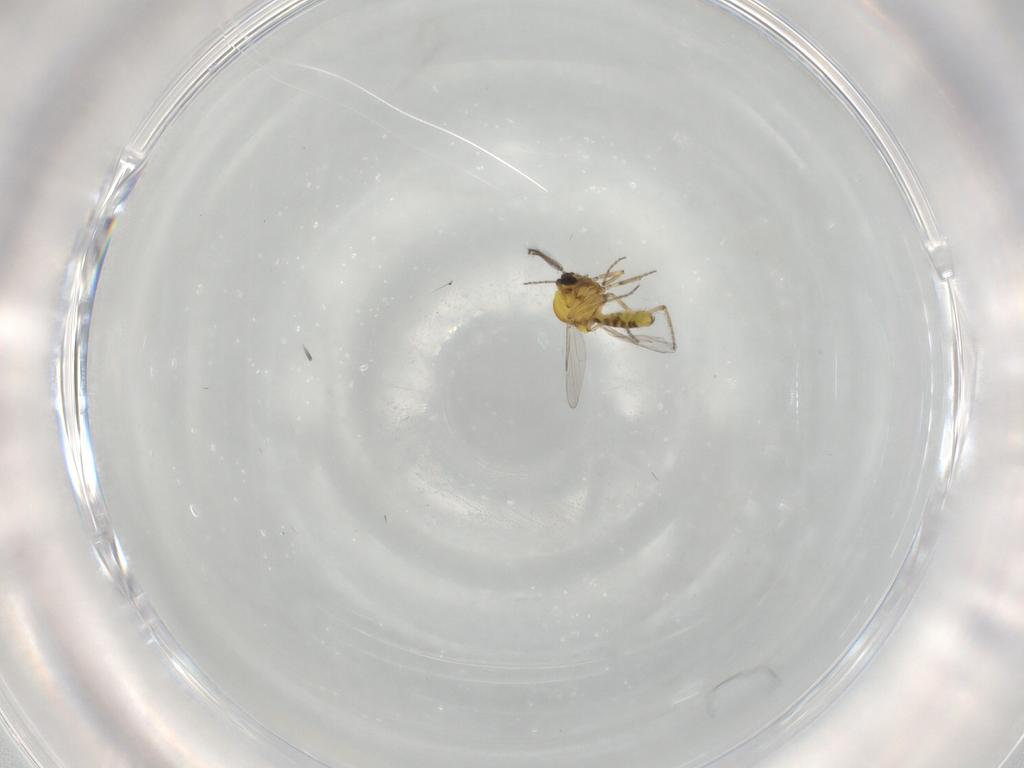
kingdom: Animalia
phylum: Arthropoda
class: Insecta
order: Diptera
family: Ceratopogonidae
